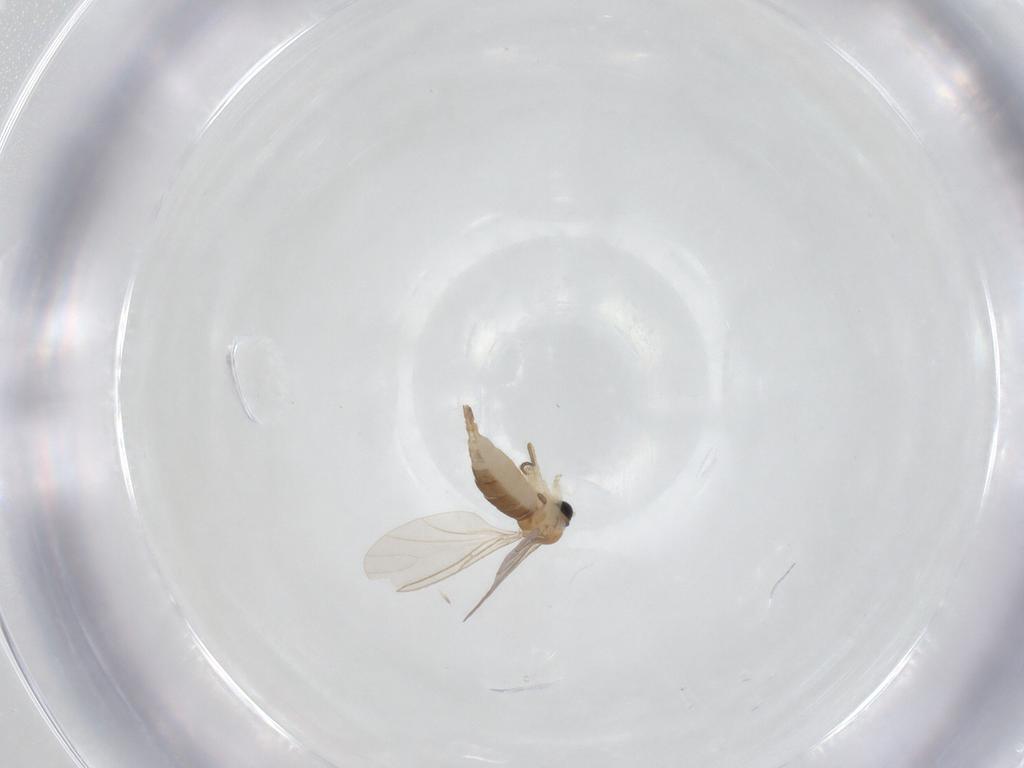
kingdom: Animalia
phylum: Arthropoda
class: Insecta
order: Diptera
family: Sciaridae
